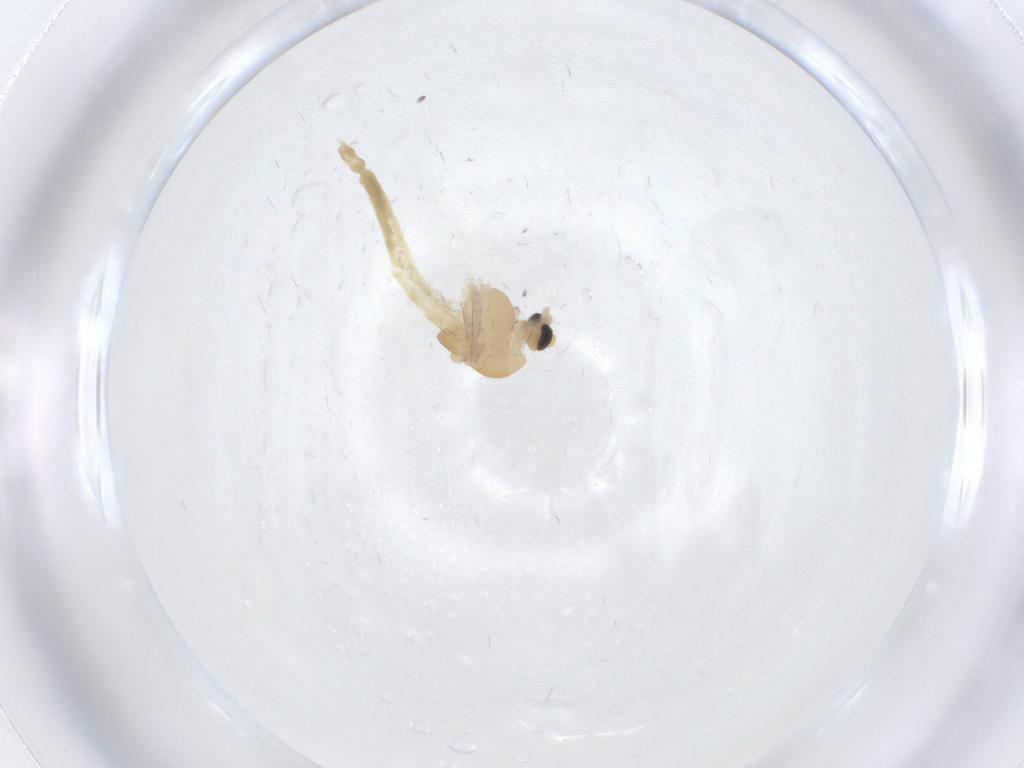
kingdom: Animalia
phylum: Arthropoda
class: Insecta
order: Diptera
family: Chironomidae
